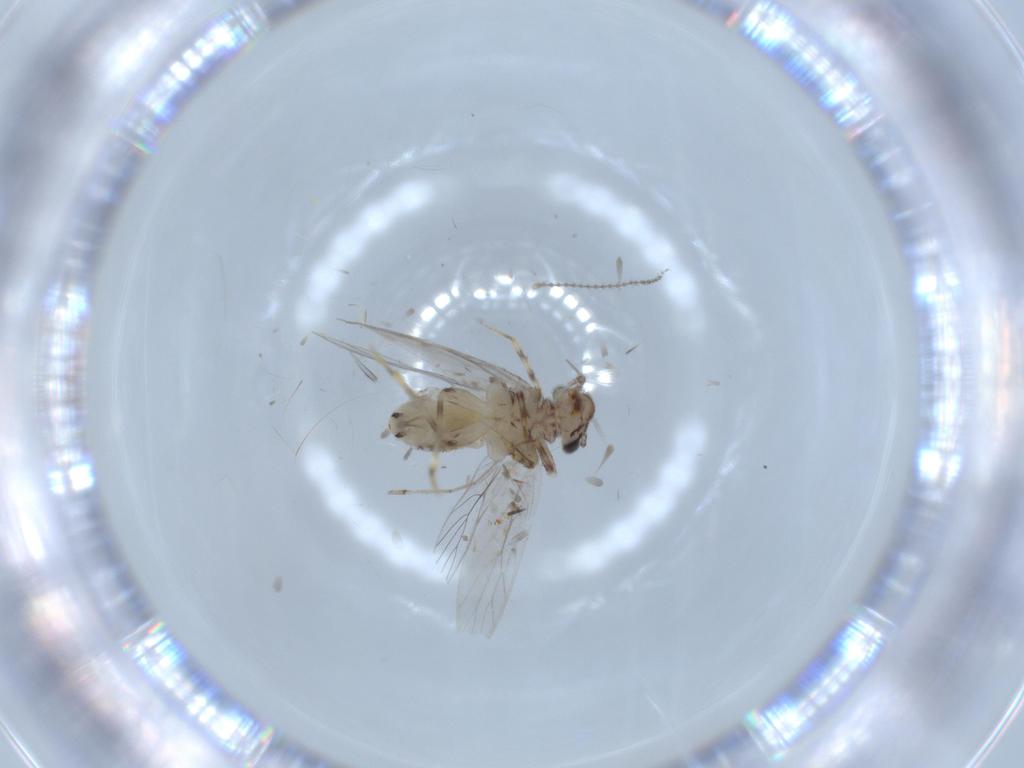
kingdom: Animalia
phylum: Arthropoda
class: Insecta
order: Psocodea
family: Lepidopsocidae
